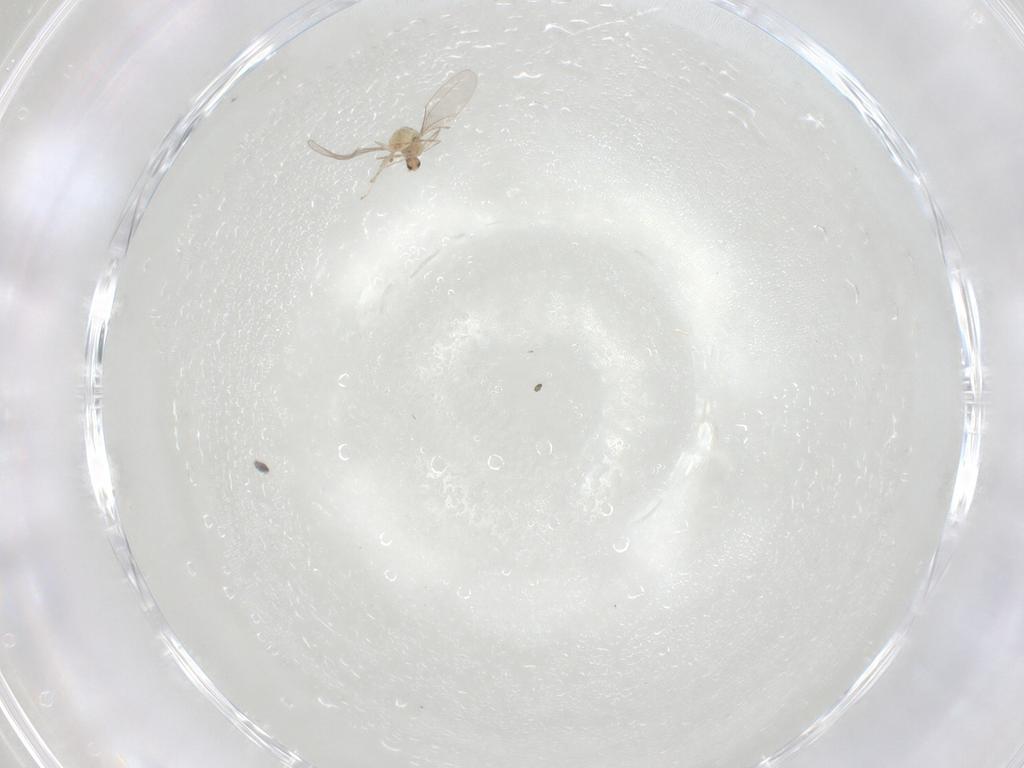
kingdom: Animalia
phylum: Arthropoda
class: Insecta
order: Diptera
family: Cecidomyiidae
